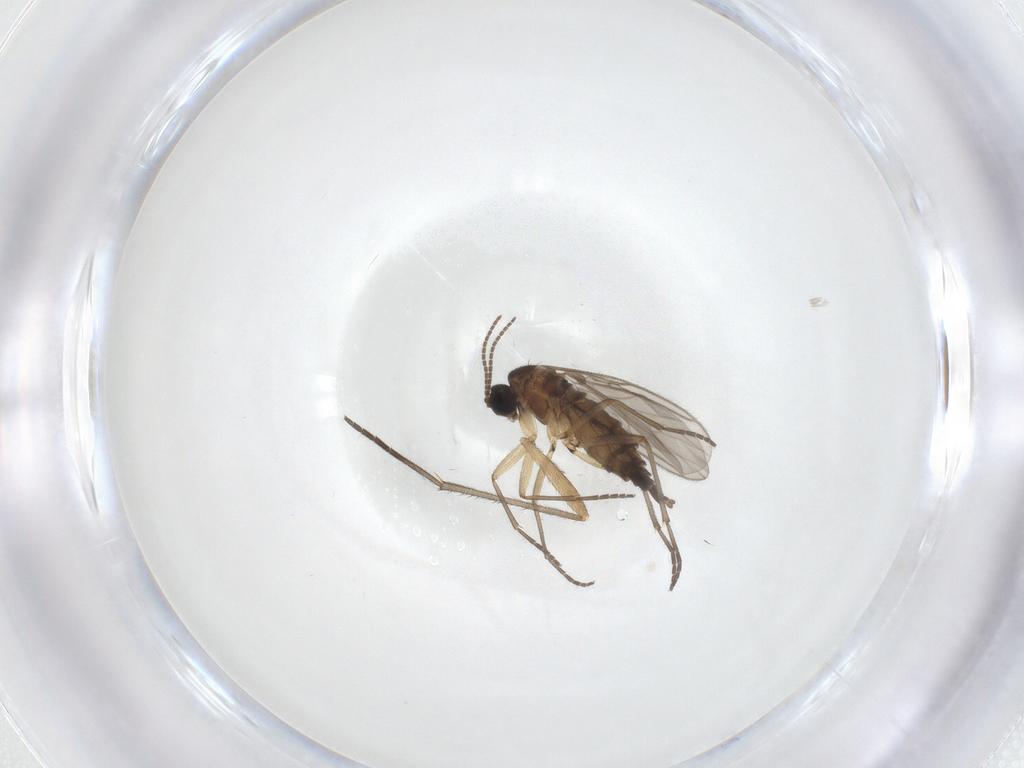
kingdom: Animalia
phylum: Arthropoda
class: Insecta
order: Diptera
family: Sciaridae
